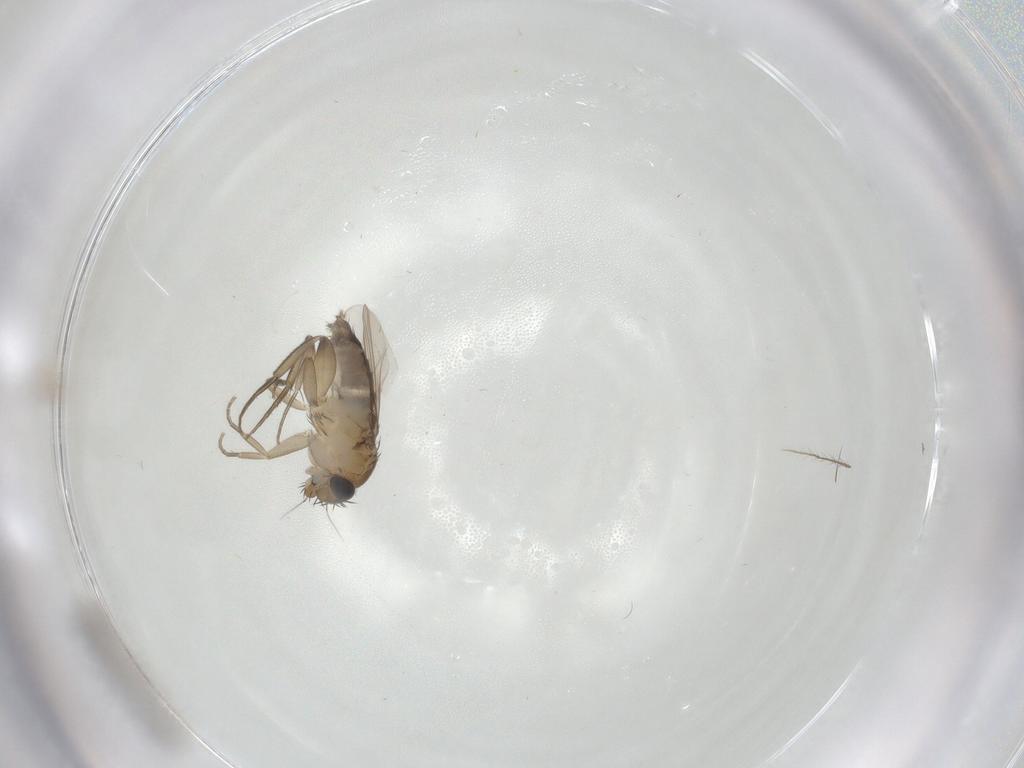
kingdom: Animalia
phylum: Arthropoda
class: Insecta
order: Diptera
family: Phoridae
